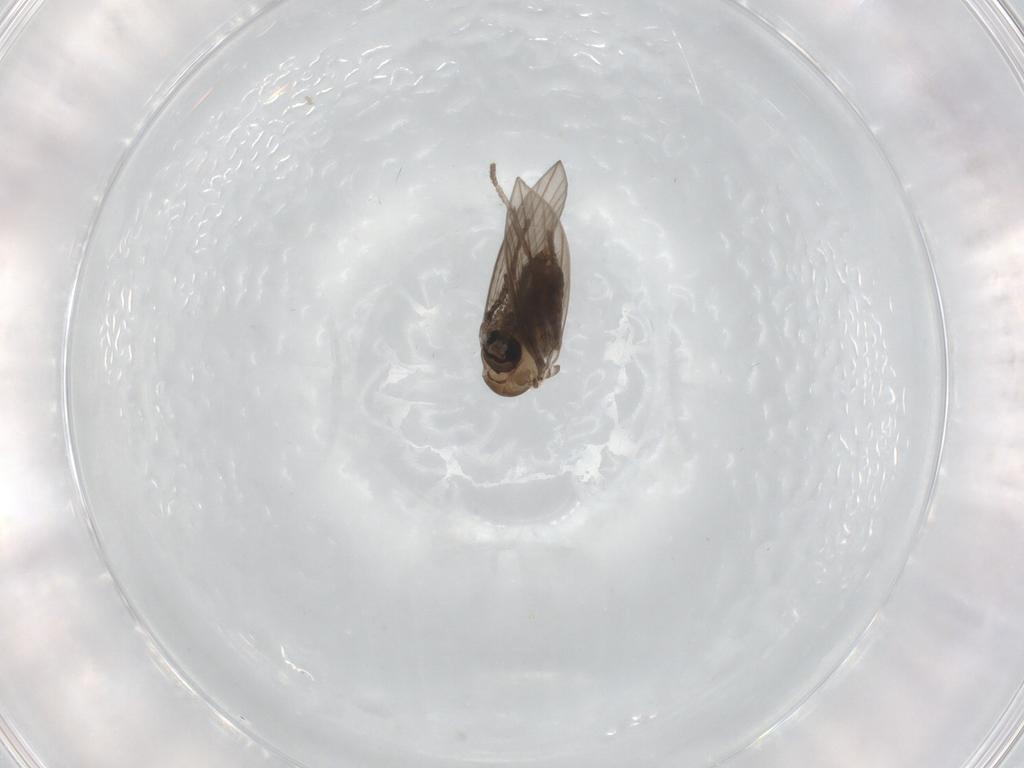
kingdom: Animalia
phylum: Arthropoda
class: Insecta
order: Diptera
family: Psychodidae
